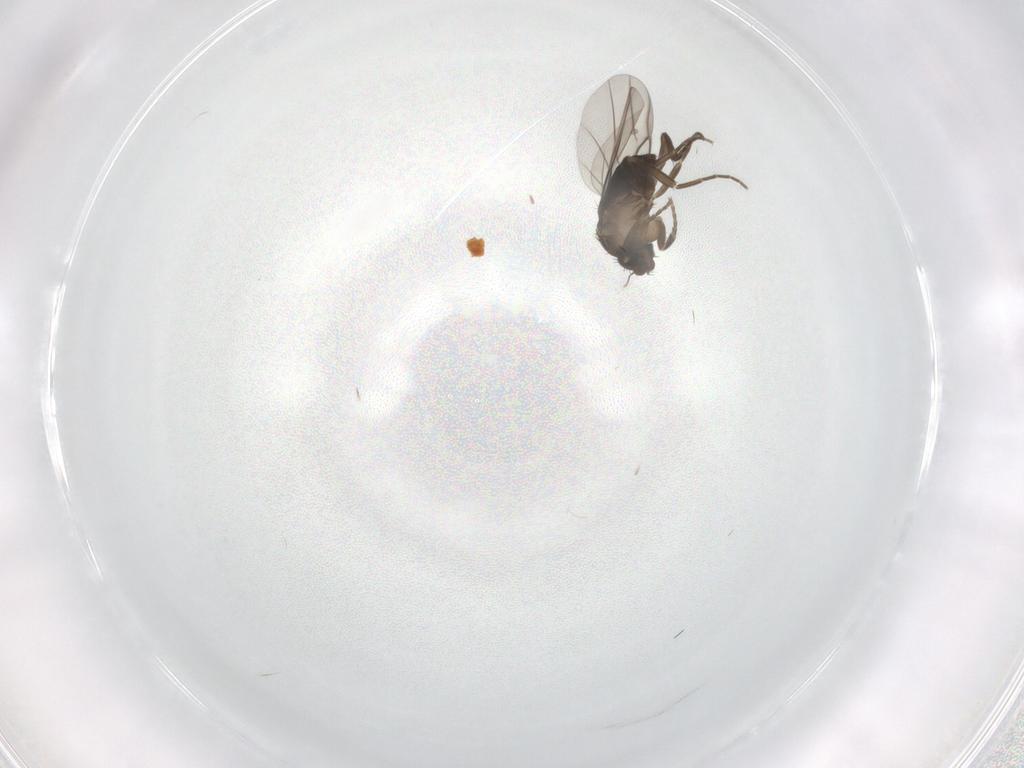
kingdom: Animalia
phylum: Arthropoda
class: Insecta
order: Diptera
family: Phoridae
